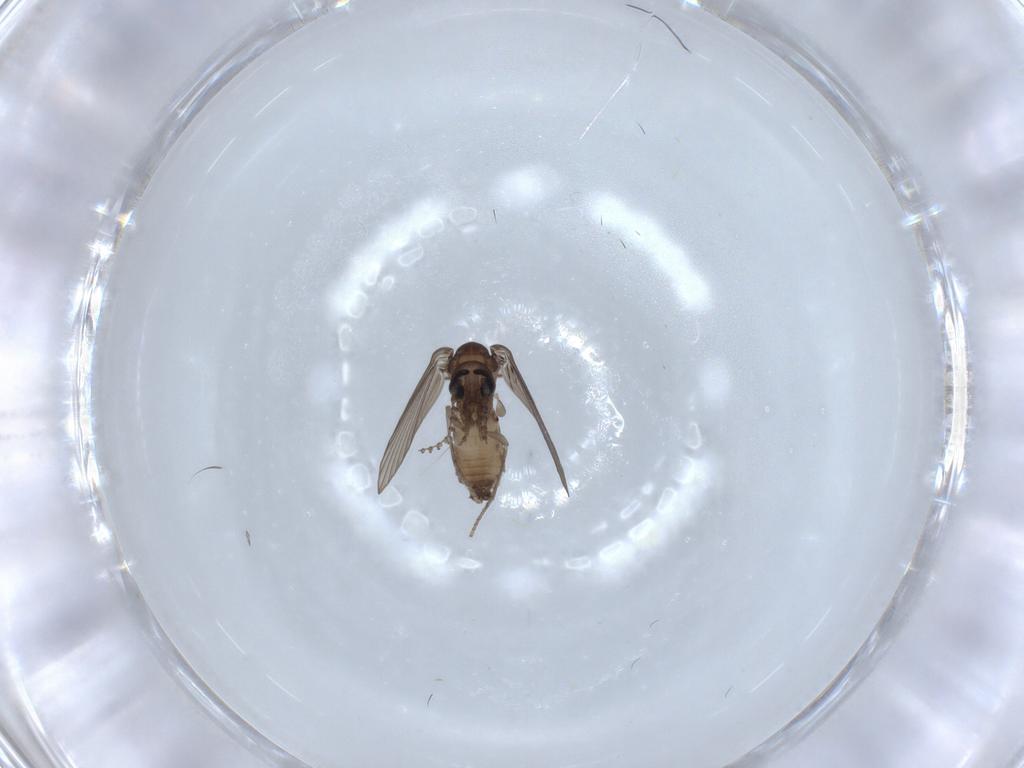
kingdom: Animalia
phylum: Arthropoda
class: Insecta
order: Diptera
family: Psychodidae
